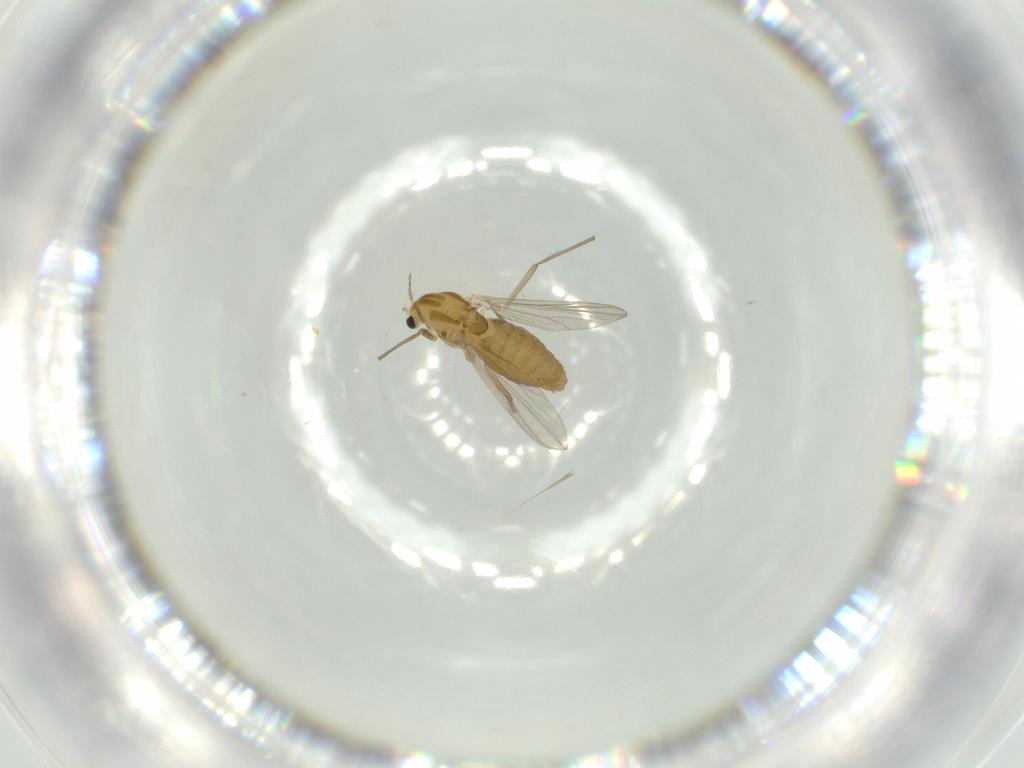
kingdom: Animalia
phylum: Arthropoda
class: Insecta
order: Diptera
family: Chironomidae
